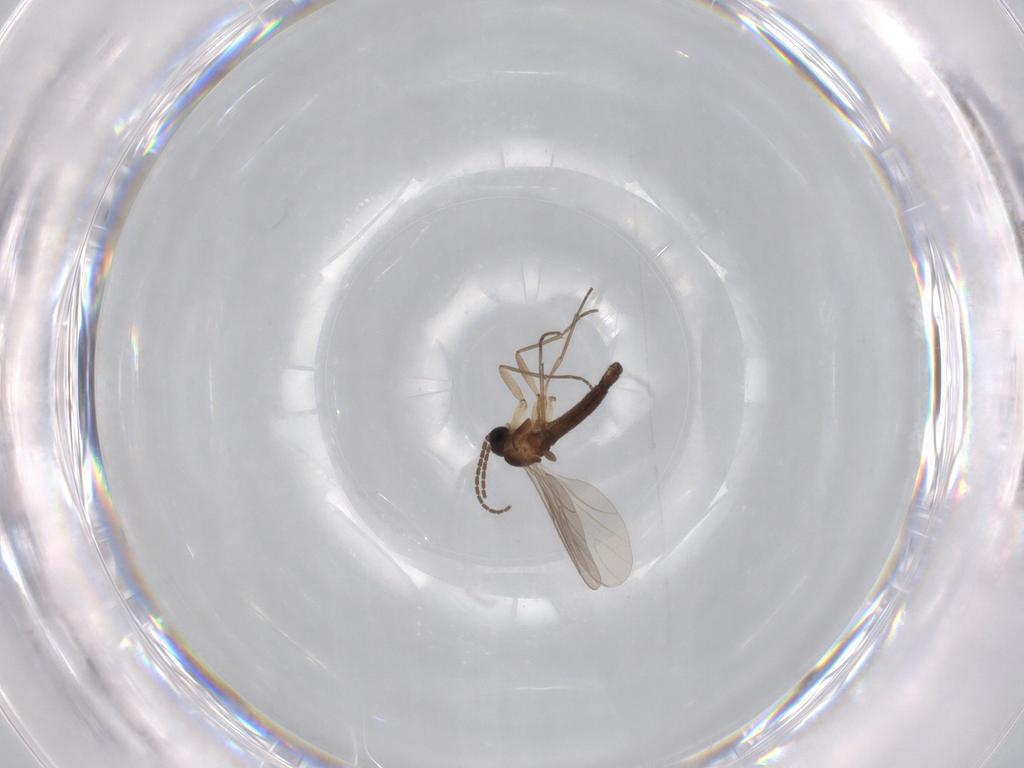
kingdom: Animalia
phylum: Arthropoda
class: Insecta
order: Diptera
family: Sciaridae
